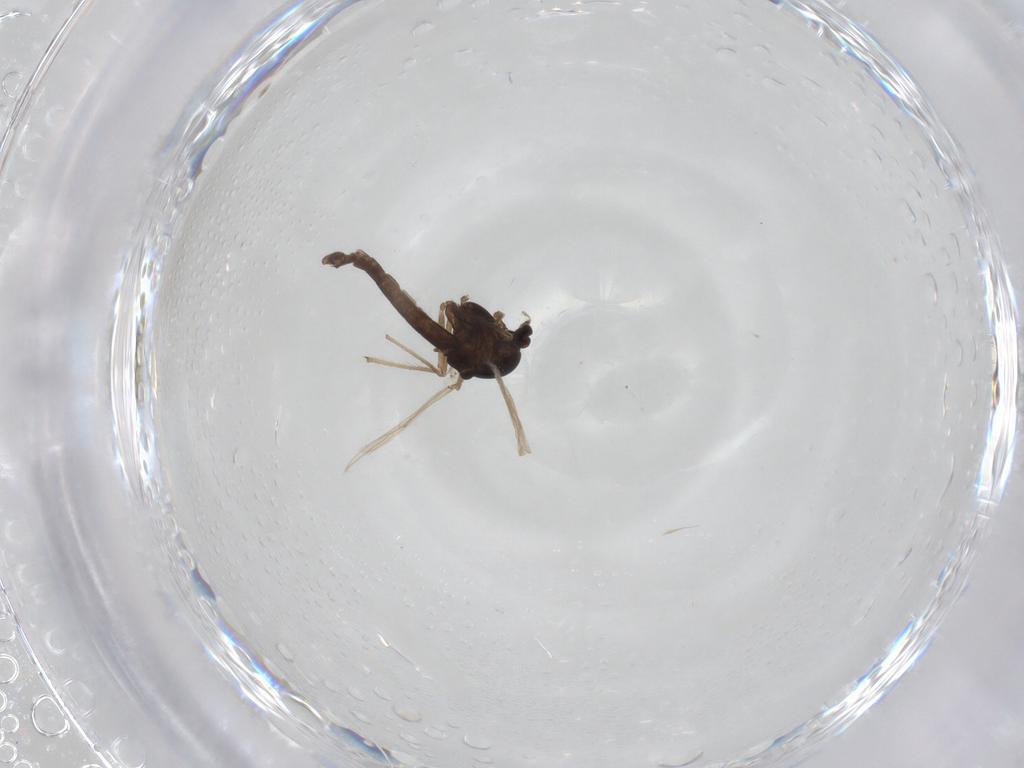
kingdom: Animalia
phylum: Arthropoda
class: Insecta
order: Diptera
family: Chironomidae
